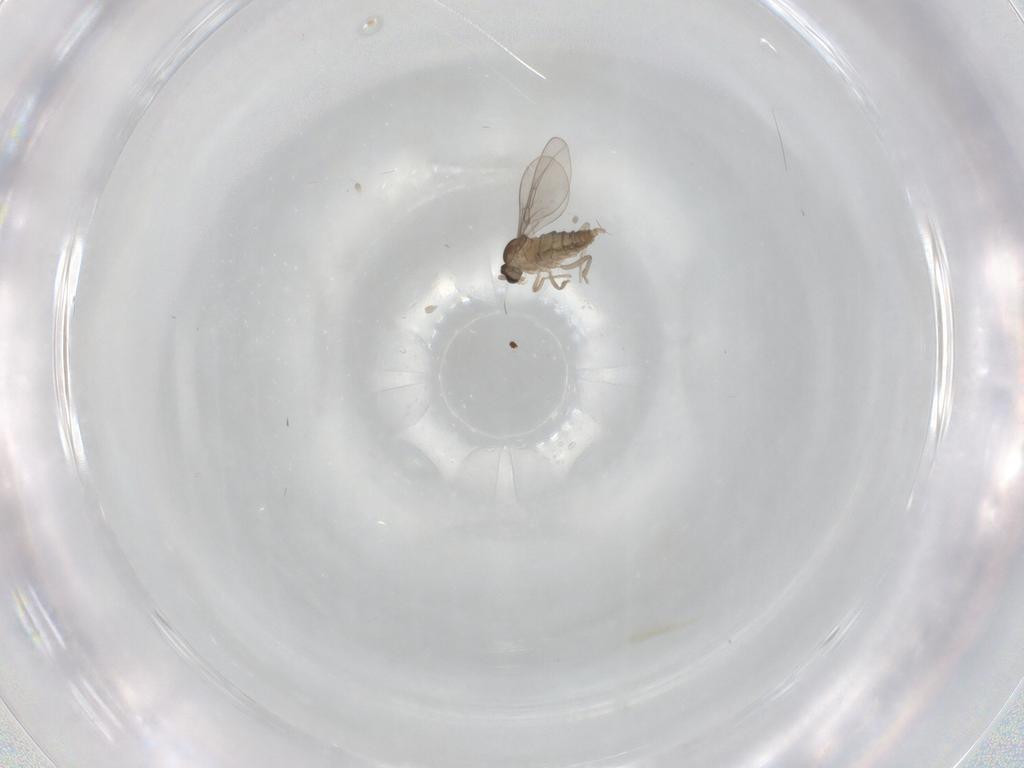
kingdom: Animalia
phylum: Arthropoda
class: Insecta
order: Diptera
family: Cecidomyiidae
